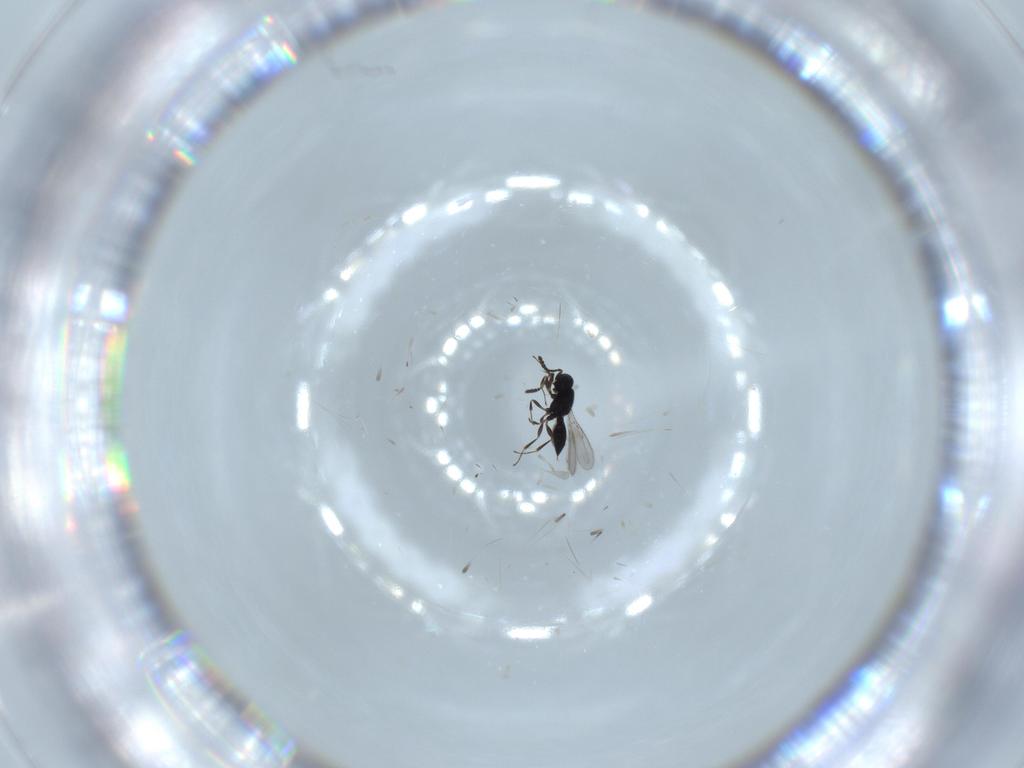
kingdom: Animalia
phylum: Arthropoda
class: Insecta
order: Hymenoptera
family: Scelionidae
